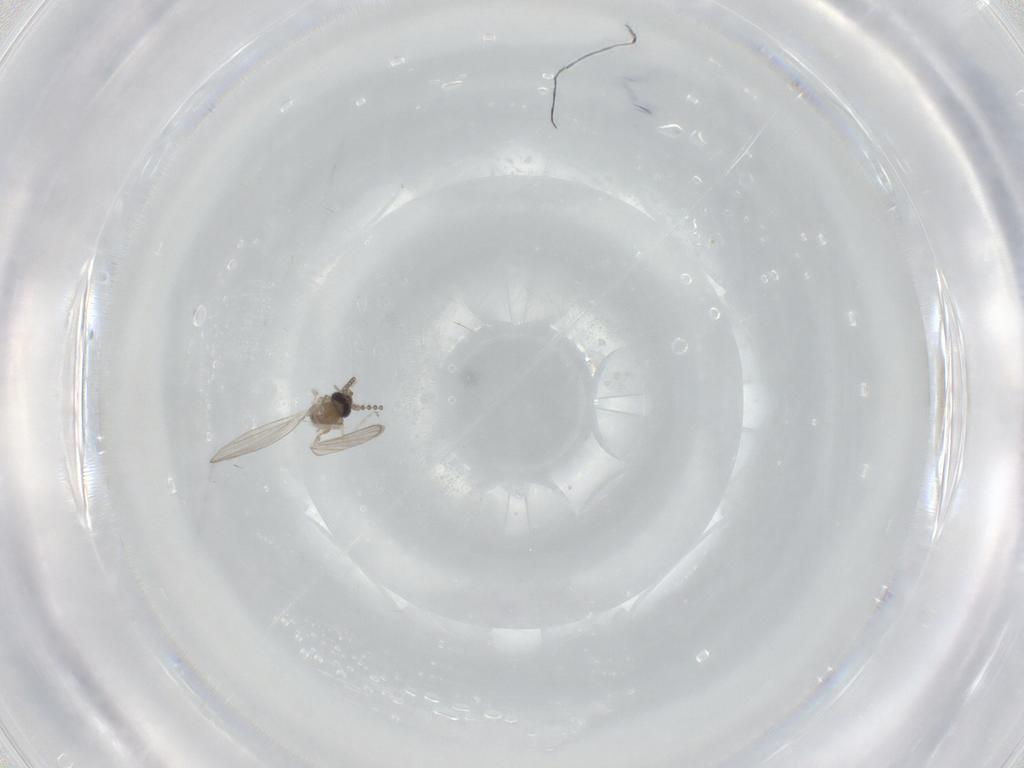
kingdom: Animalia
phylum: Arthropoda
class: Insecta
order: Diptera
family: Psychodidae
